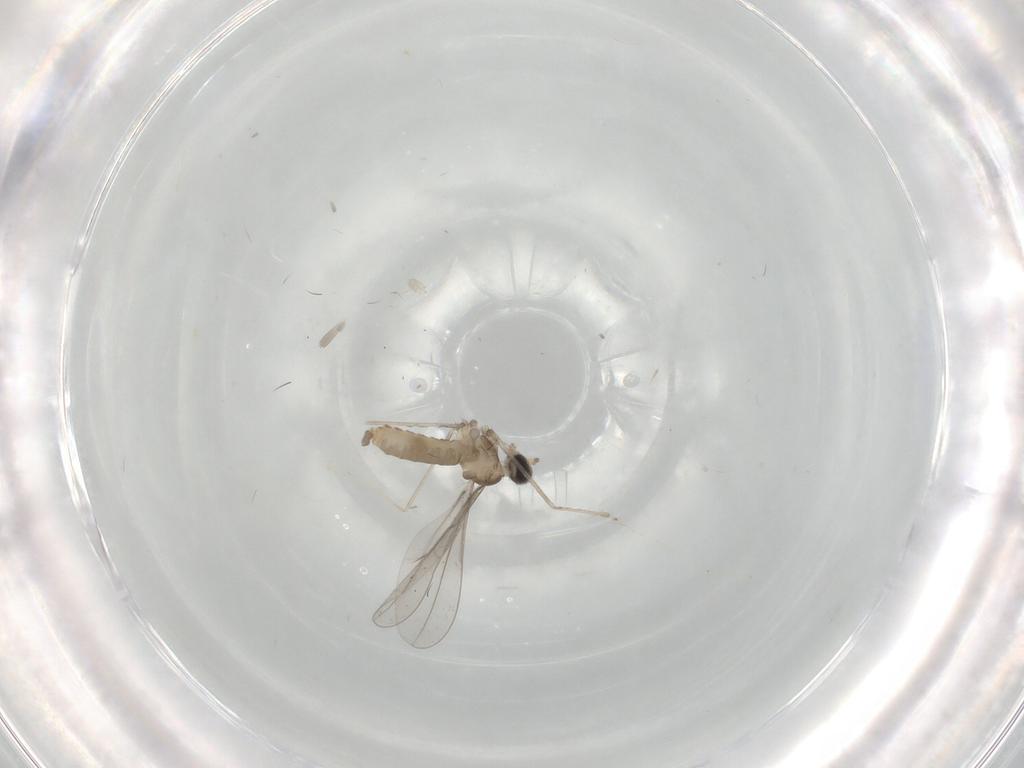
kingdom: Animalia
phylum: Arthropoda
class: Insecta
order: Diptera
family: Cecidomyiidae
